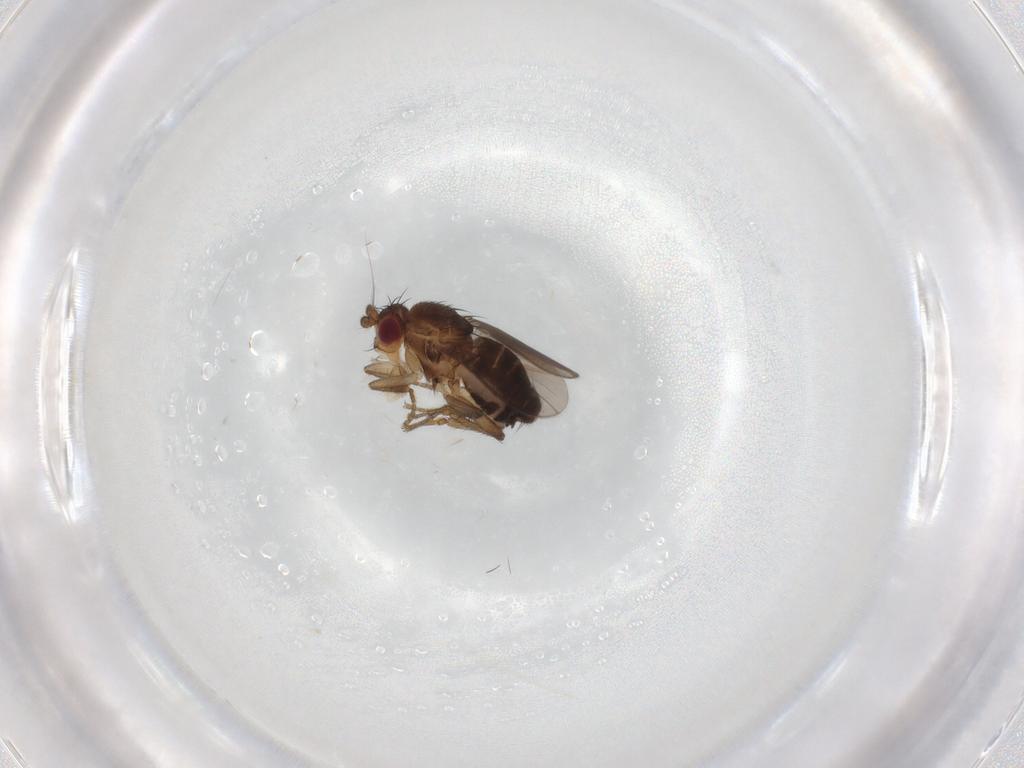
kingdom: Animalia
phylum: Arthropoda
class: Insecta
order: Diptera
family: Sphaeroceridae
